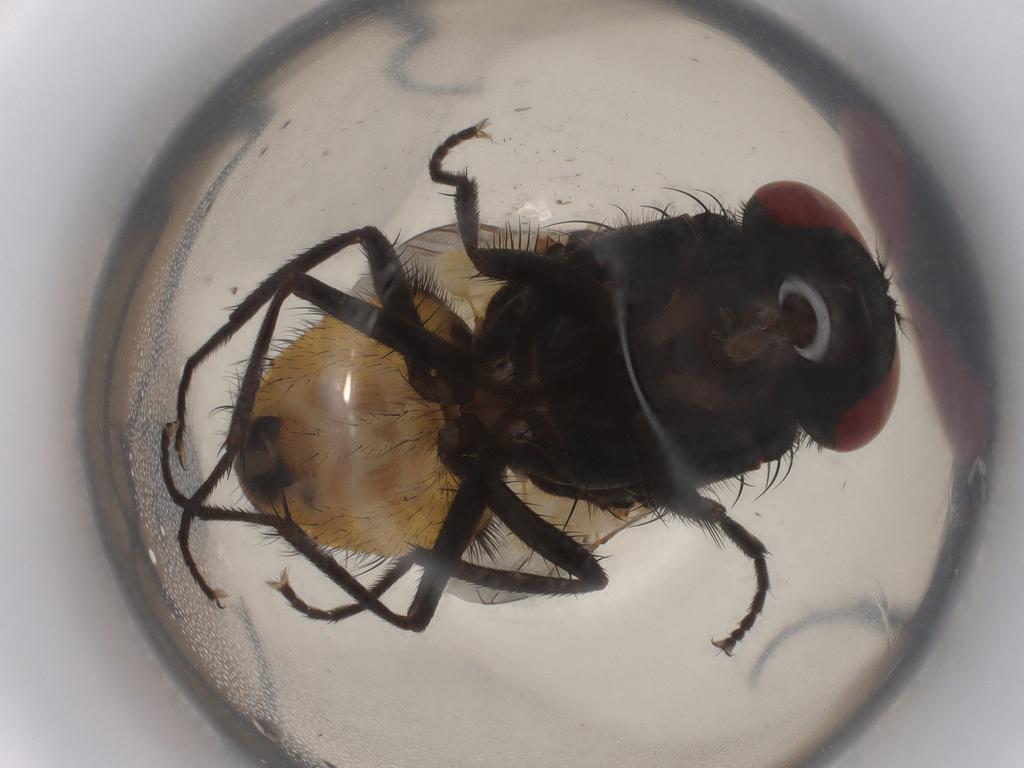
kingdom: Animalia
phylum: Arthropoda
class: Insecta
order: Diptera
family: Muscidae
